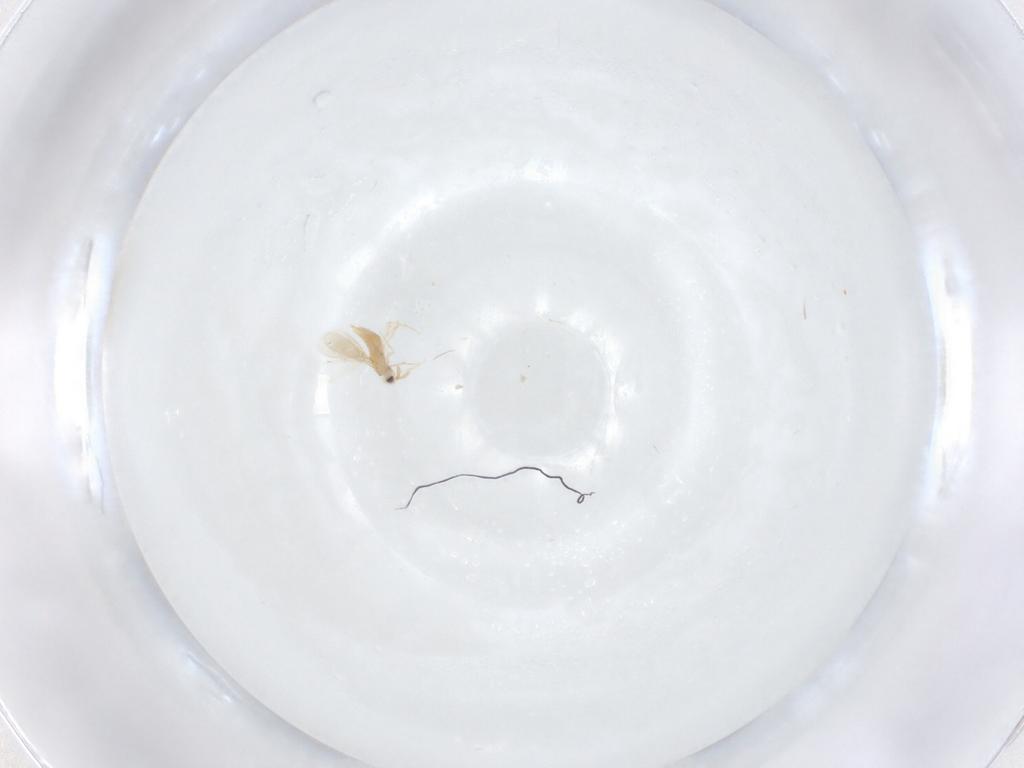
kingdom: Animalia
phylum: Arthropoda
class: Insecta
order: Hymenoptera
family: Aphelinidae
